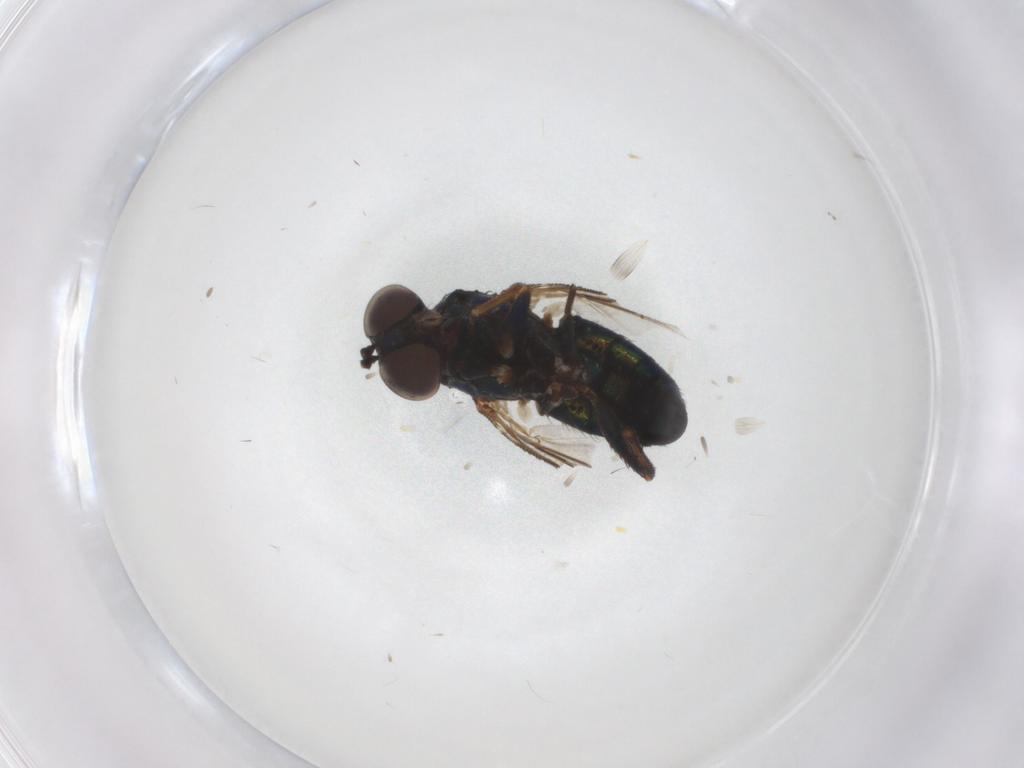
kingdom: Animalia
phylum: Arthropoda
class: Insecta
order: Diptera
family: Dolichopodidae
